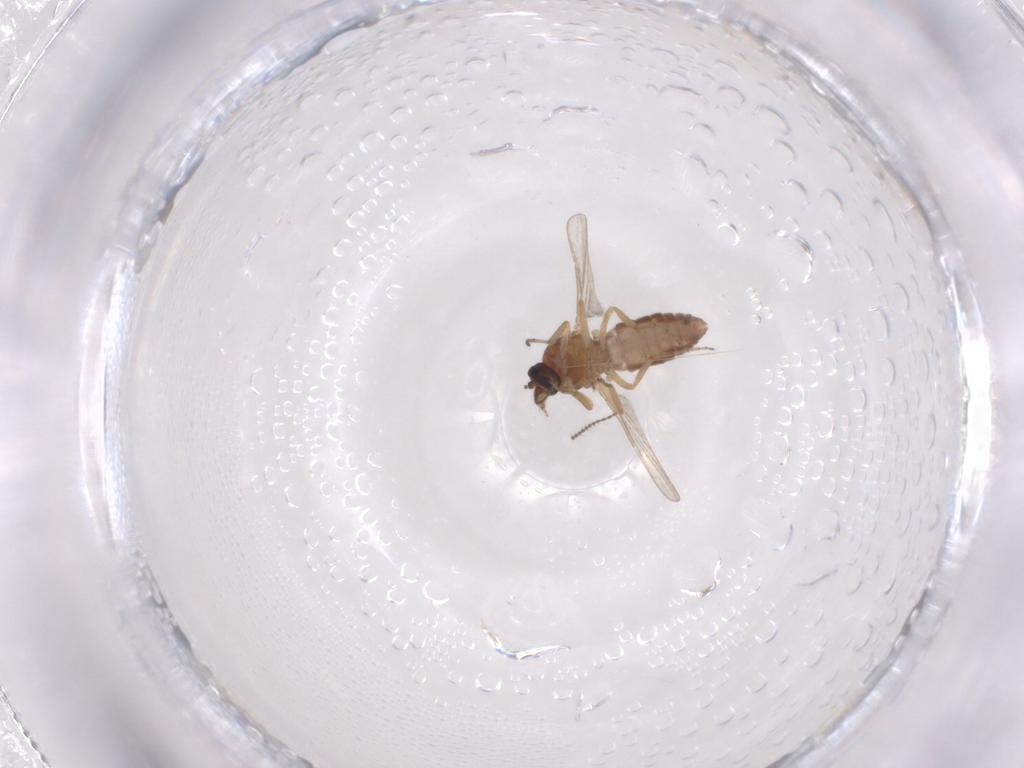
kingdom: Animalia
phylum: Arthropoda
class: Insecta
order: Diptera
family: Ceratopogonidae
